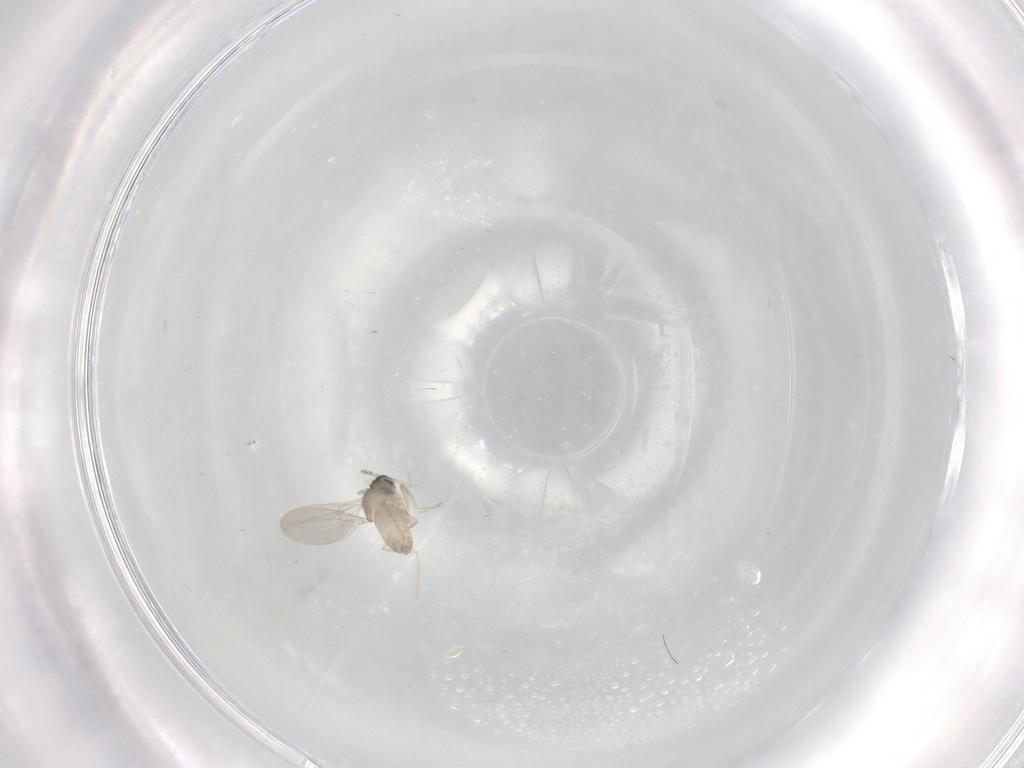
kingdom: Animalia
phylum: Arthropoda
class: Insecta
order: Diptera
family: Cecidomyiidae
